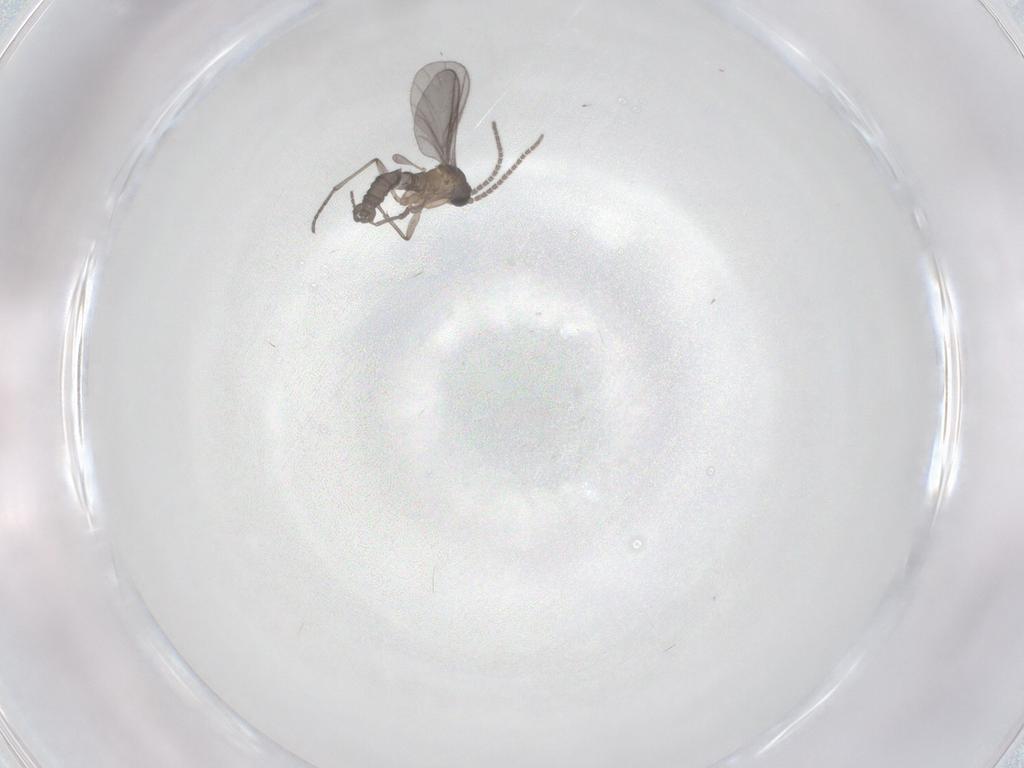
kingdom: Animalia
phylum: Arthropoda
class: Insecta
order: Diptera
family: Sciaridae
